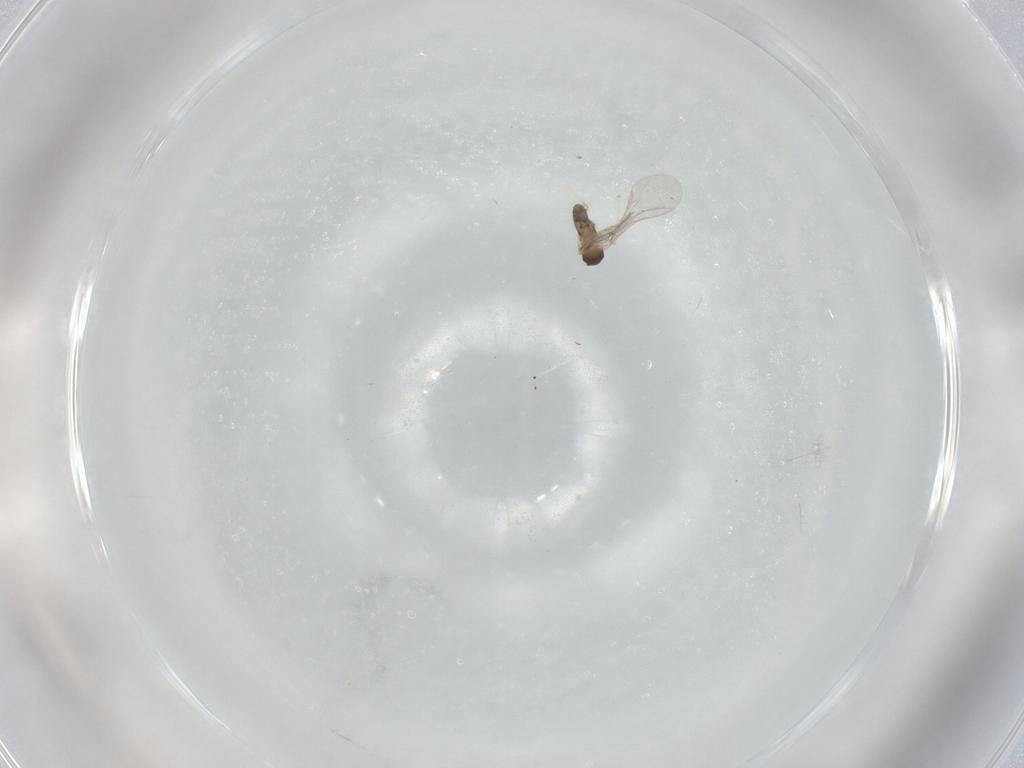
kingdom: Animalia
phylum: Arthropoda
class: Insecta
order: Diptera
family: Cecidomyiidae
